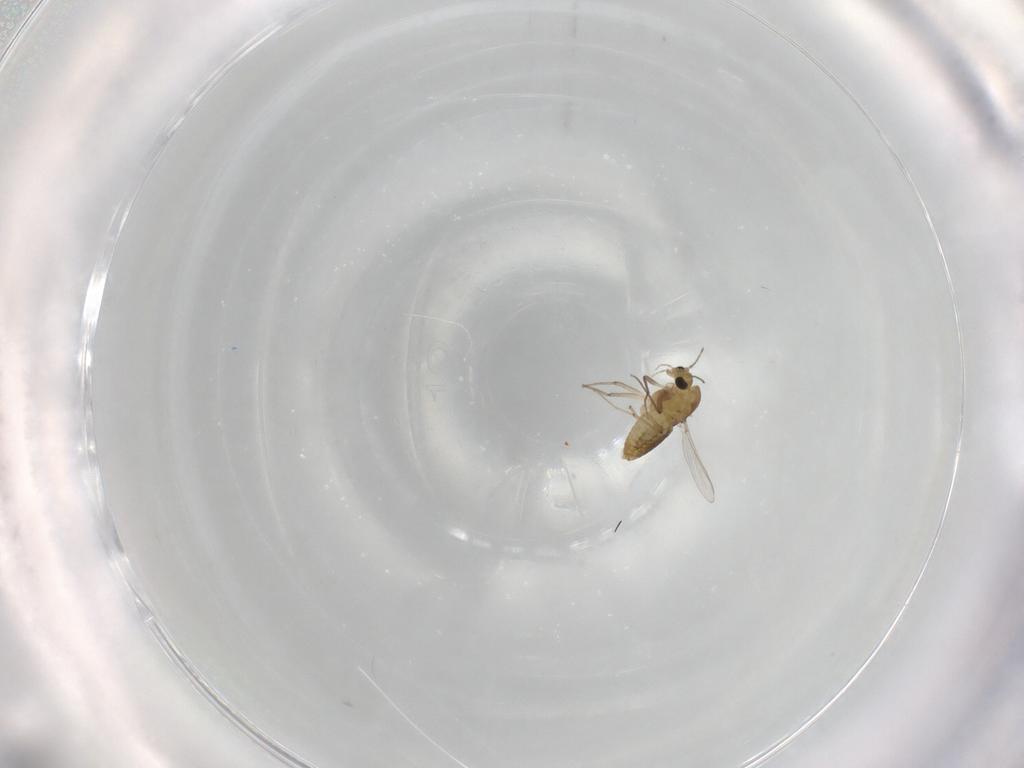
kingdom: Animalia
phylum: Arthropoda
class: Insecta
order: Diptera
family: Chironomidae
